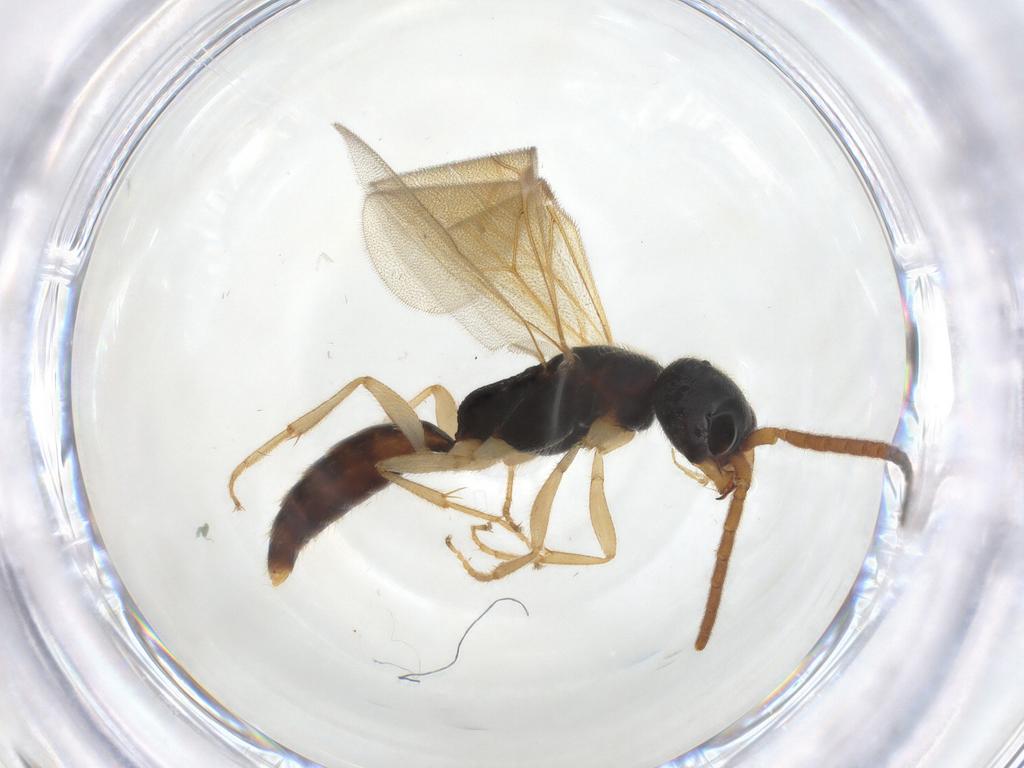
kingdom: Animalia
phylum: Arthropoda
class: Insecta
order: Hymenoptera
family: Bethylidae
